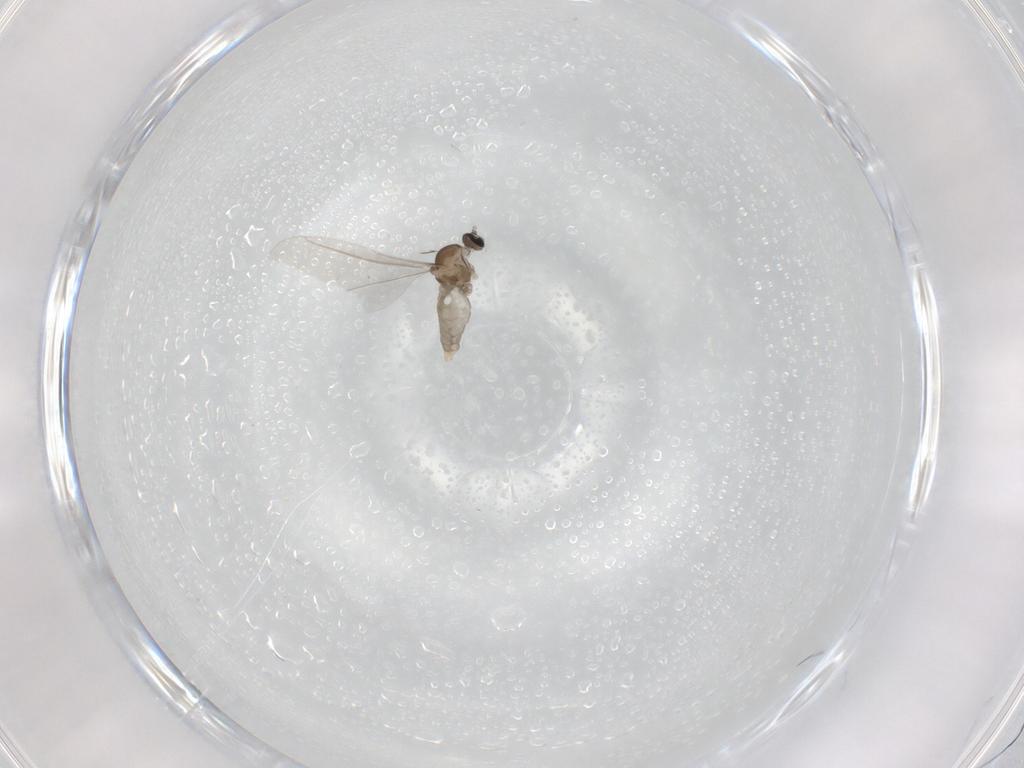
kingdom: Animalia
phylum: Arthropoda
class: Insecta
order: Diptera
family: Cecidomyiidae
